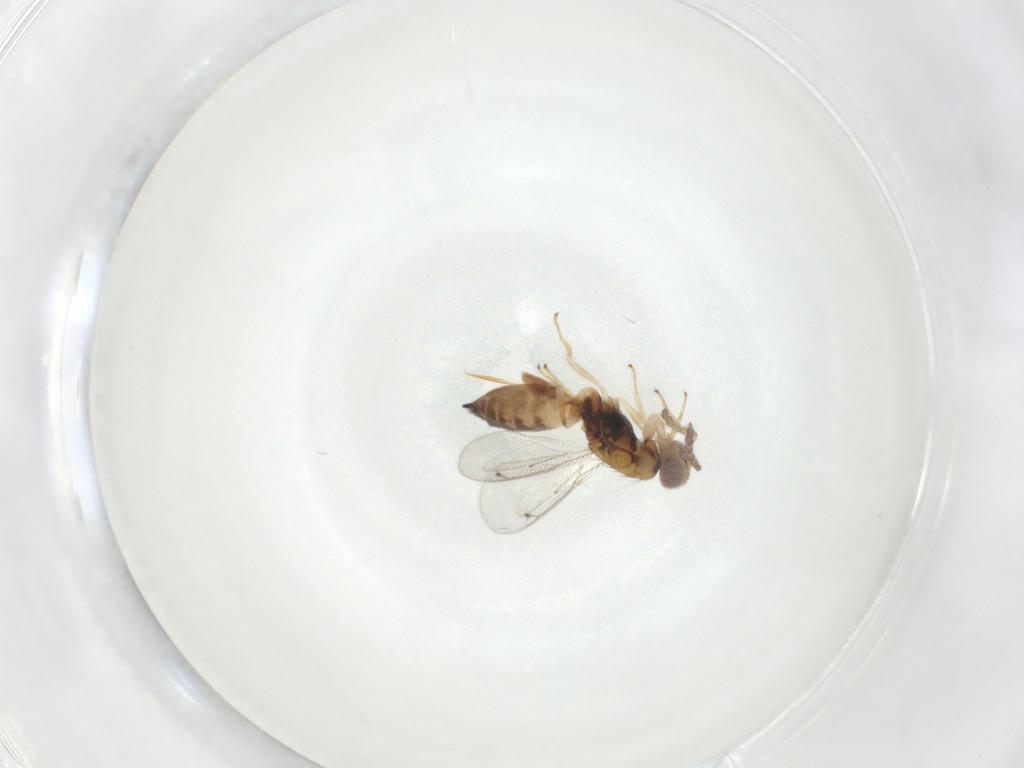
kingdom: Animalia
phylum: Arthropoda
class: Insecta
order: Hymenoptera
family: Eulophidae
